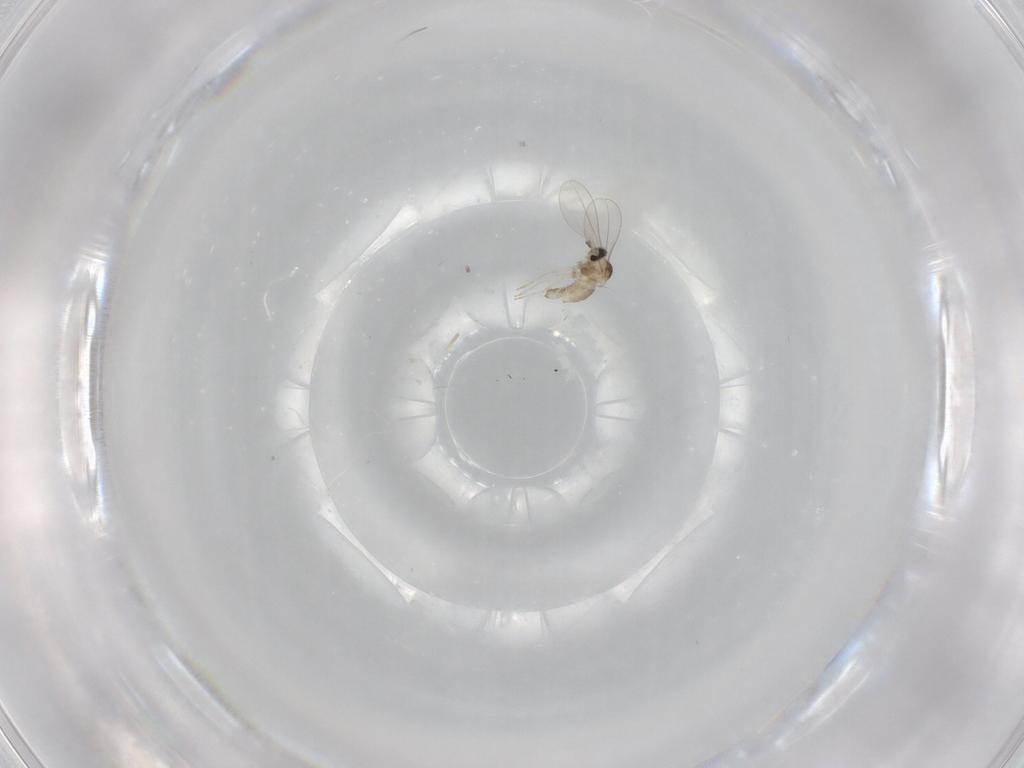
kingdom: Animalia
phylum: Arthropoda
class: Insecta
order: Diptera
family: Cecidomyiidae
